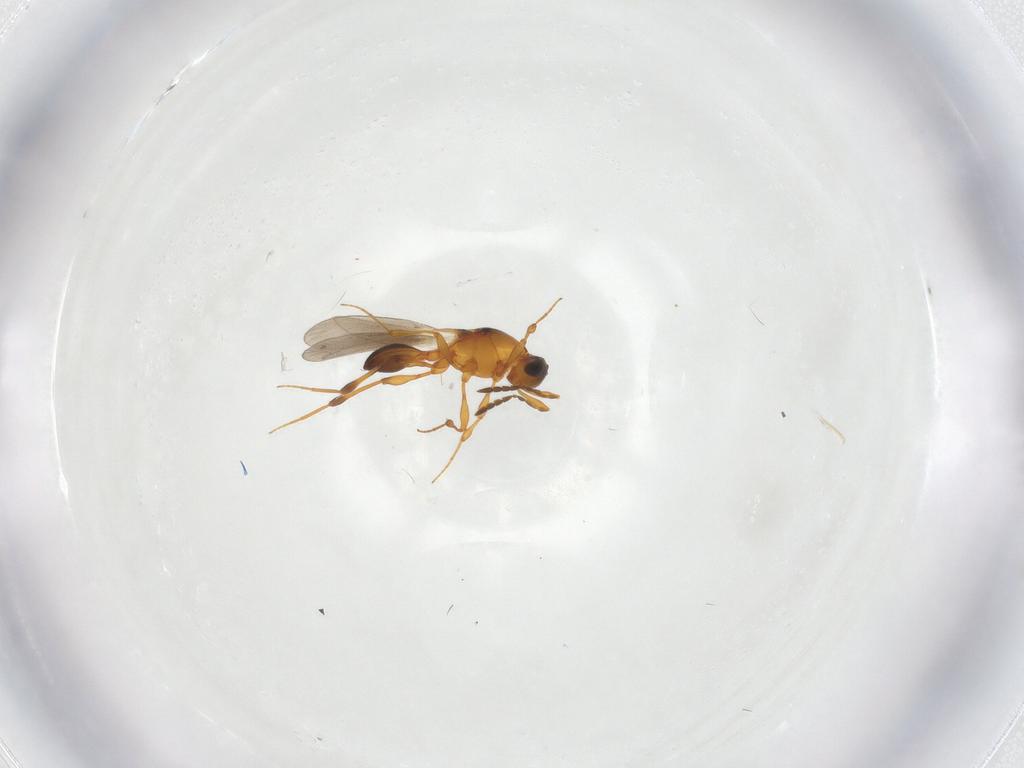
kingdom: Animalia
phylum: Arthropoda
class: Insecta
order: Hymenoptera
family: Platygastridae
